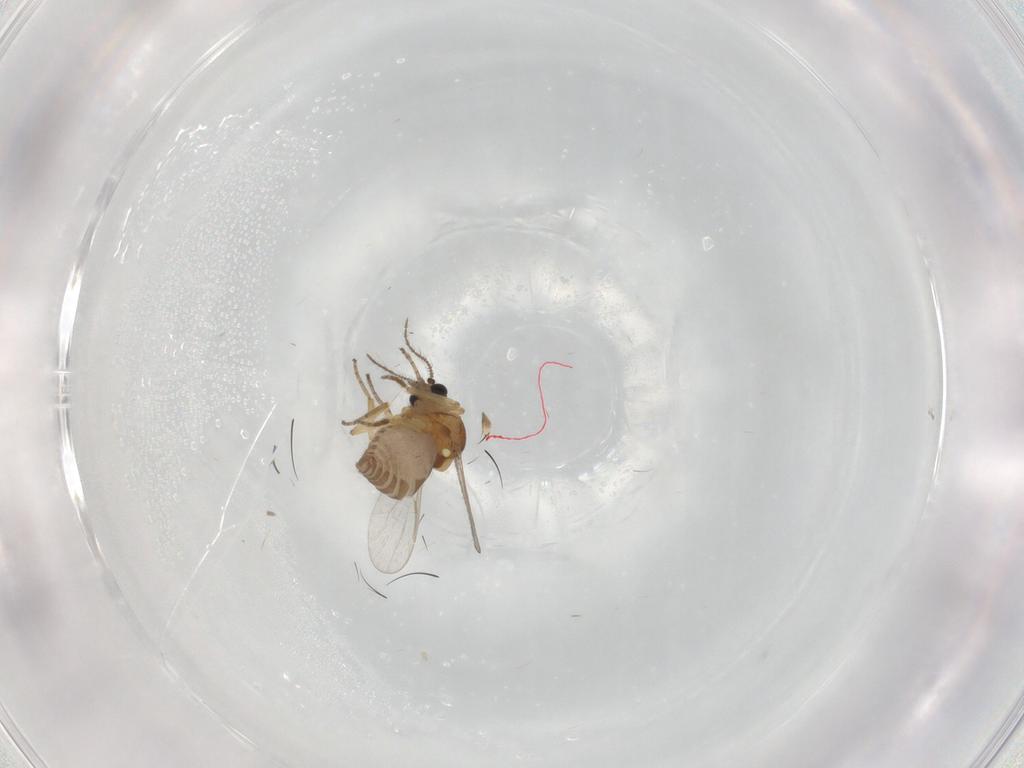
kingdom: Animalia
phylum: Arthropoda
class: Insecta
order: Diptera
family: Ceratopogonidae
